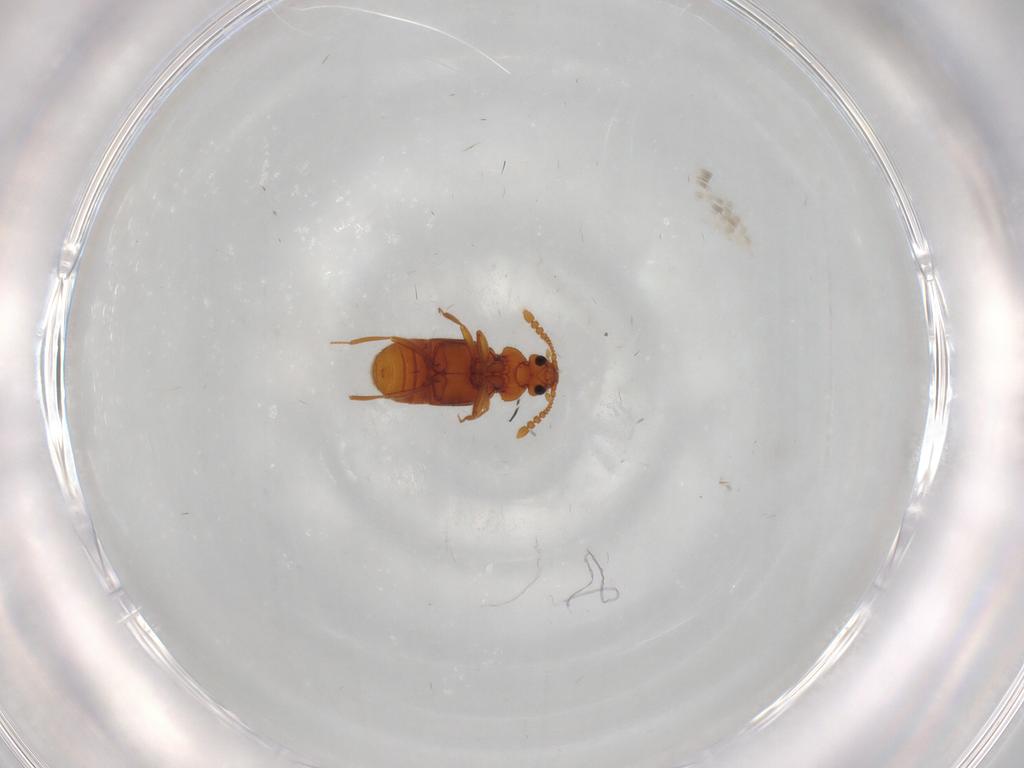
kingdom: Animalia
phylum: Arthropoda
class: Insecta
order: Coleoptera
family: Staphylinidae
